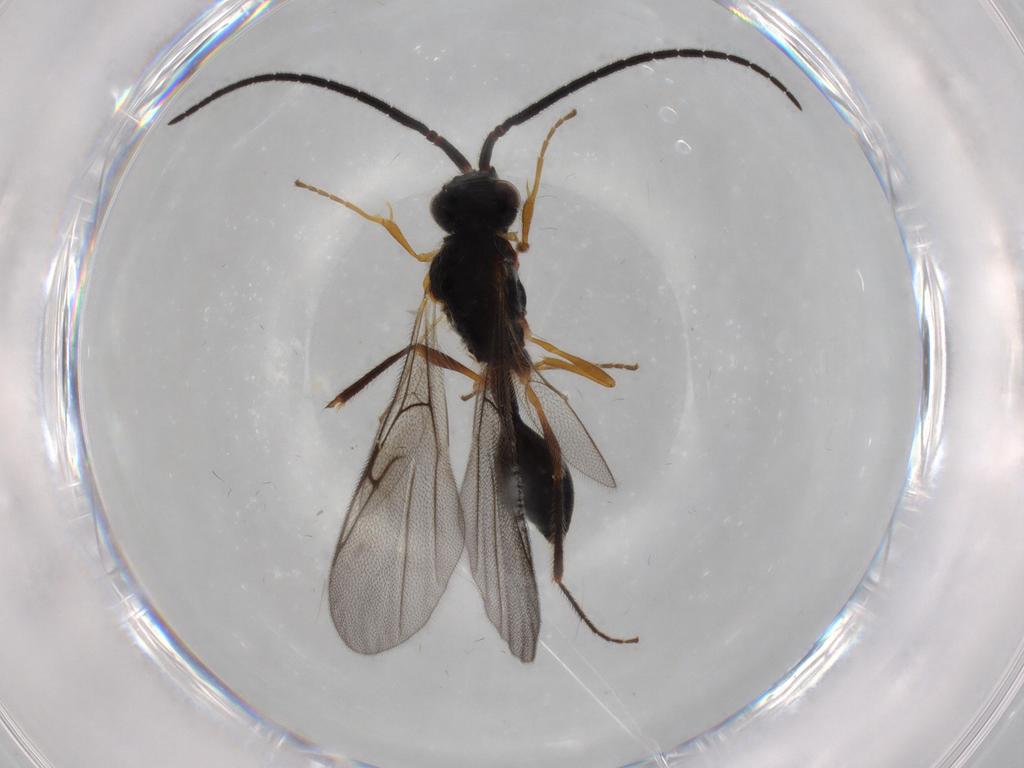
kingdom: Animalia
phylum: Arthropoda
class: Insecta
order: Hymenoptera
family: Diapriidae
